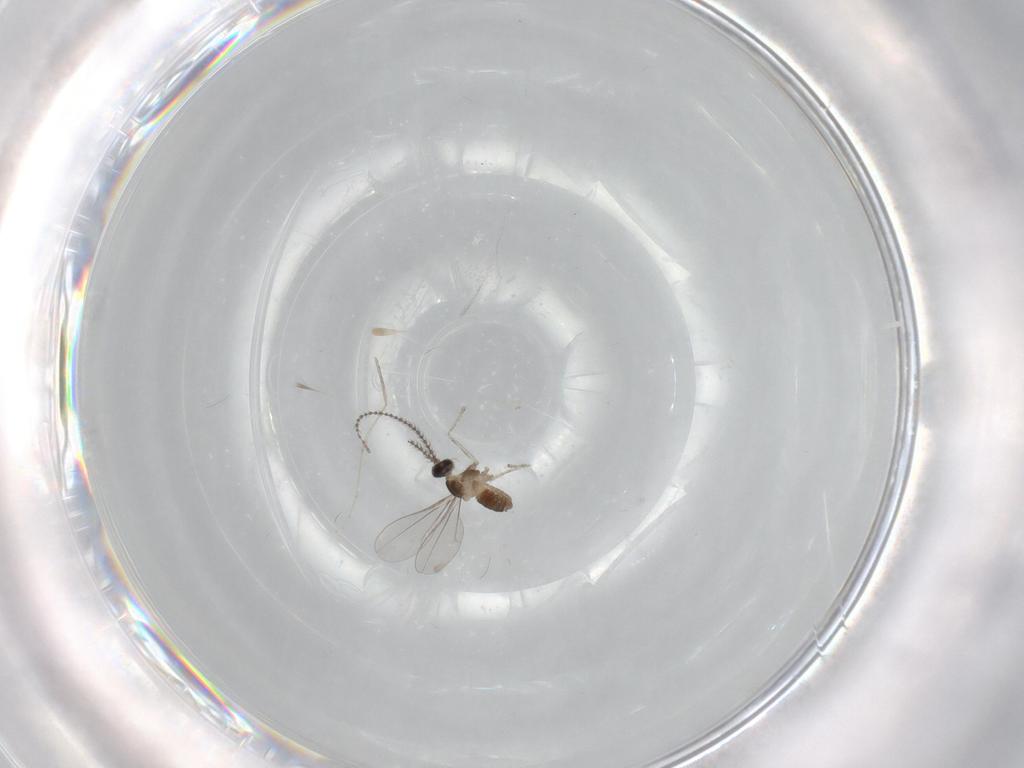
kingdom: Animalia
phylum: Arthropoda
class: Insecta
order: Diptera
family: Cecidomyiidae
